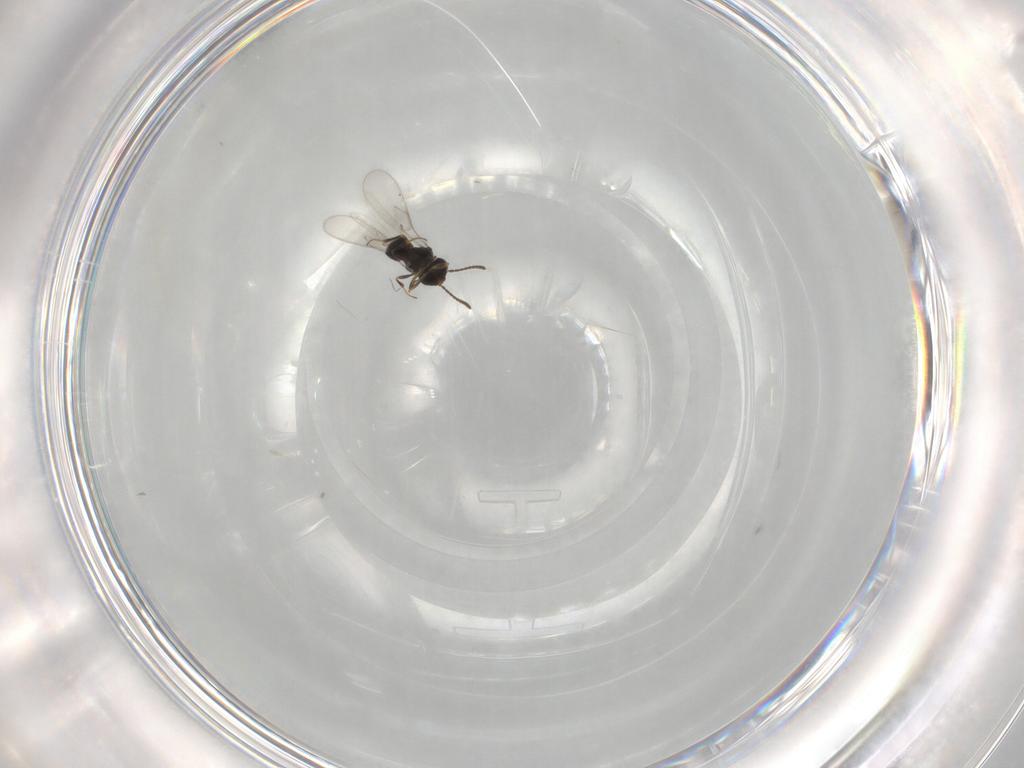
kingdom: Animalia
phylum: Arthropoda
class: Insecta
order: Hymenoptera
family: Scelionidae
